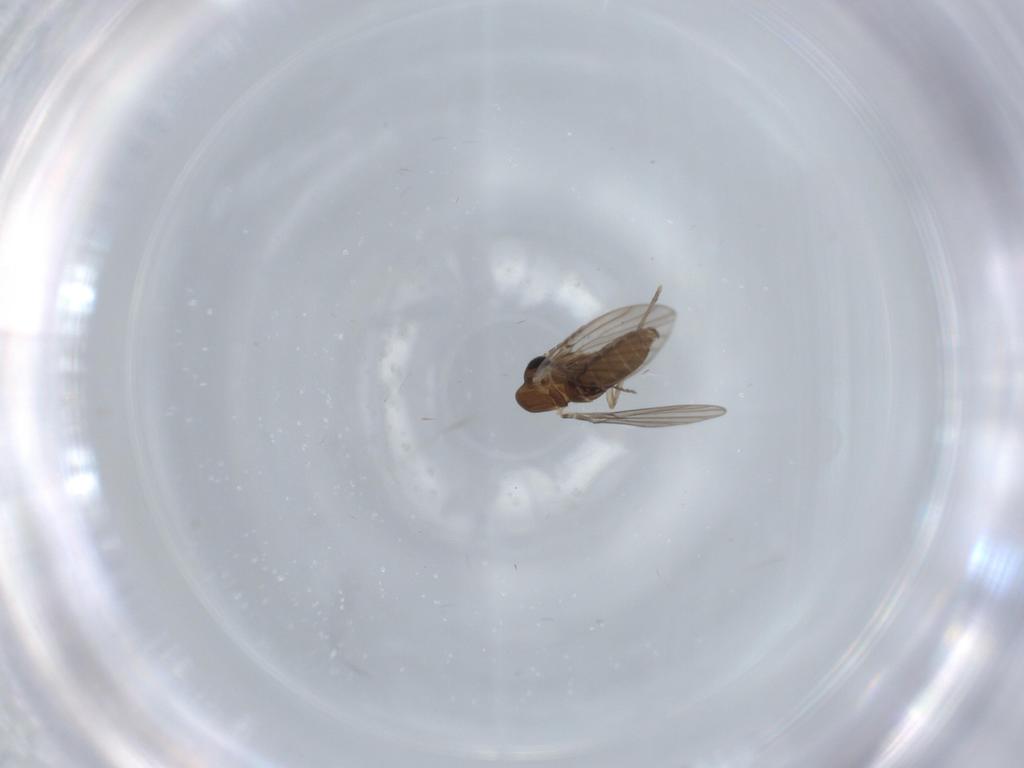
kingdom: Animalia
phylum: Arthropoda
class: Insecta
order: Diptera
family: Psychodidae
